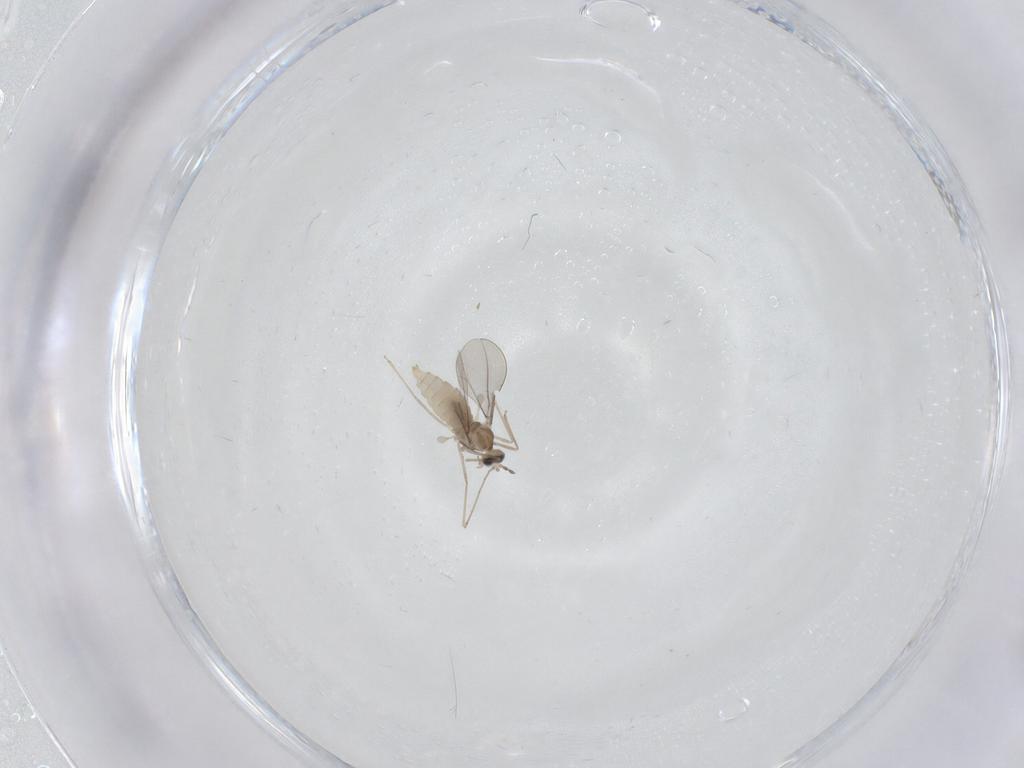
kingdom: Animalia
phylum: Arthropoda
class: Insecta
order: Diptera
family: Cecidomyiidae
